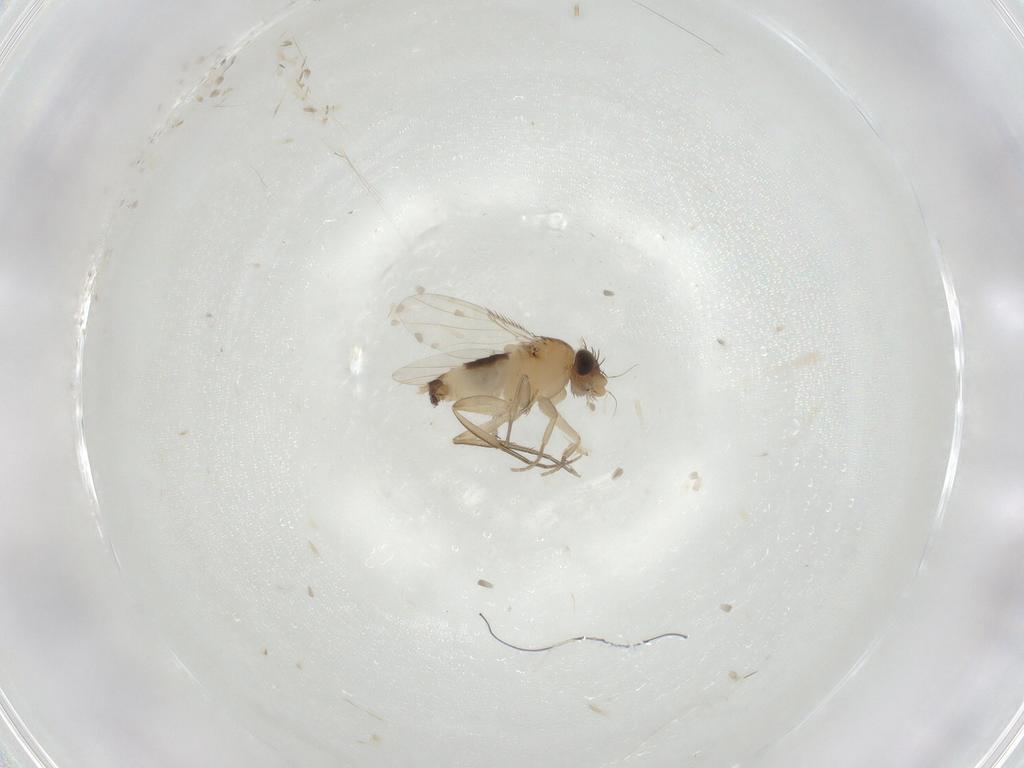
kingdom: Animalia
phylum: Arthropoda
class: Insecta
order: Diptera
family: Phoridae
